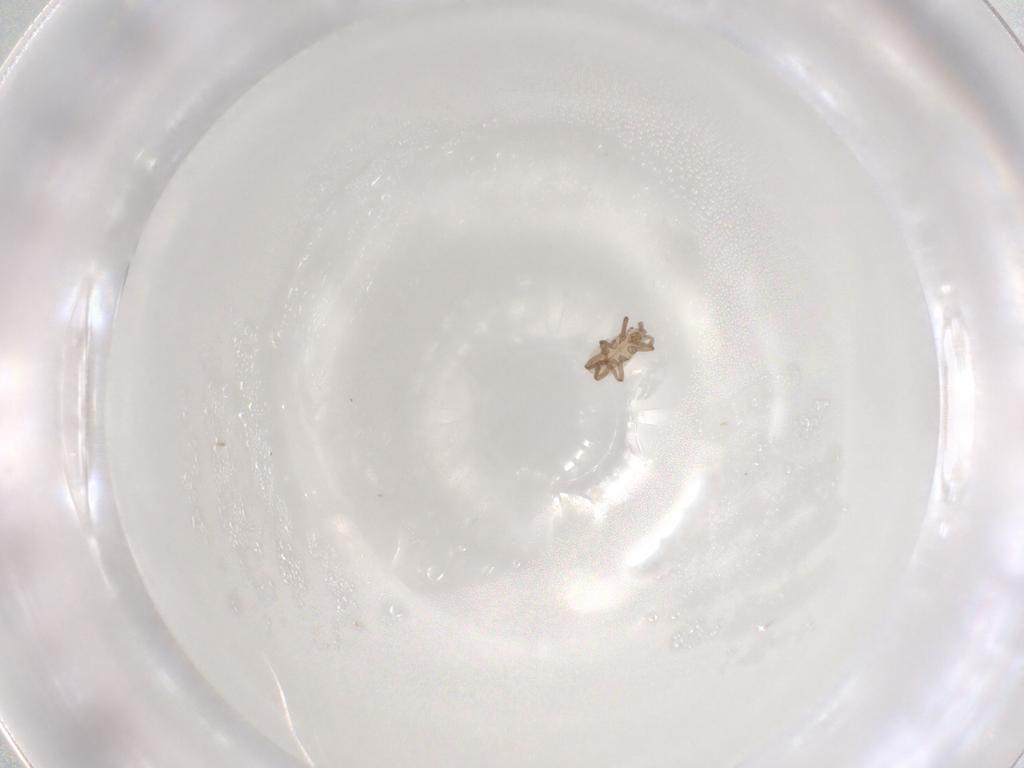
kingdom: Animalia
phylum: Arthropoda
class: Insecta
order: Hemiptera
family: Aphididae
